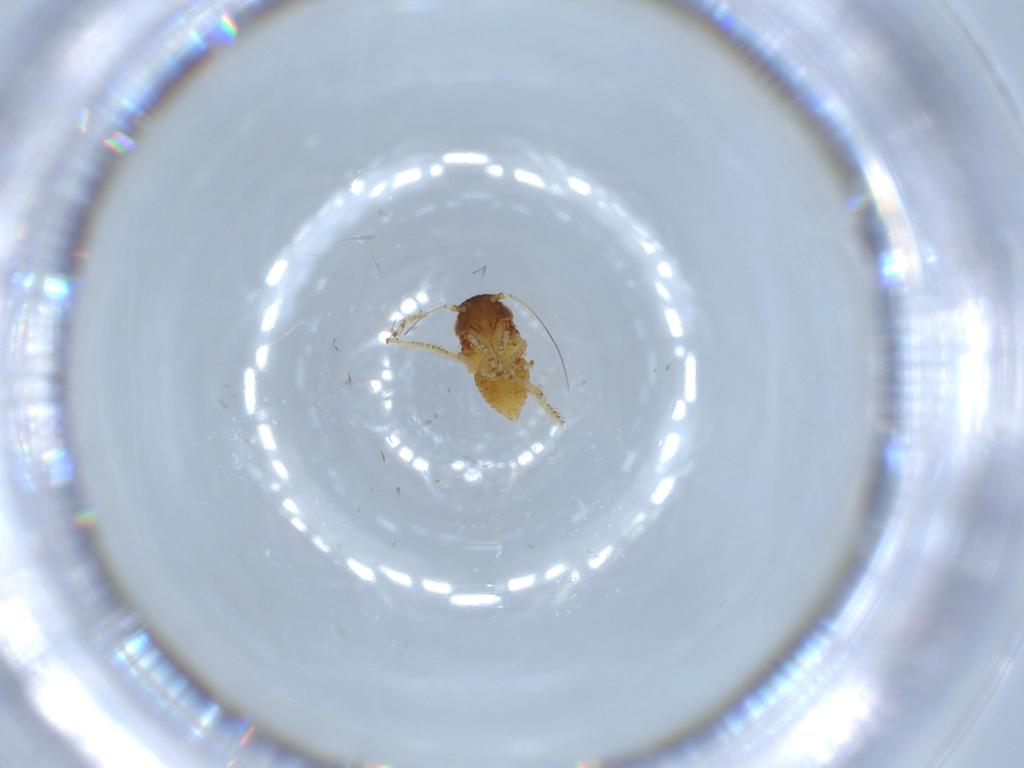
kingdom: Animalia
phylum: Arthropoda
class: Insecta
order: Hemiptera
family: Cicadellidae
